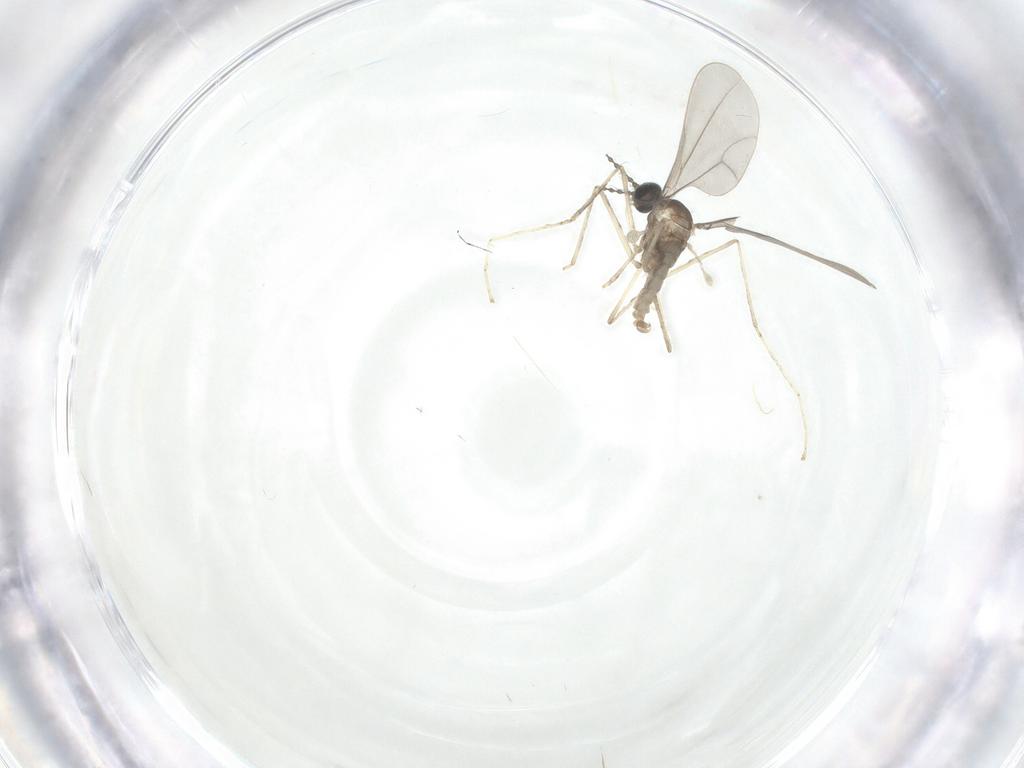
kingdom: Animalia
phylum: Arthropoda
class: Insecta
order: Diptera
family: Cecidomyiidae
